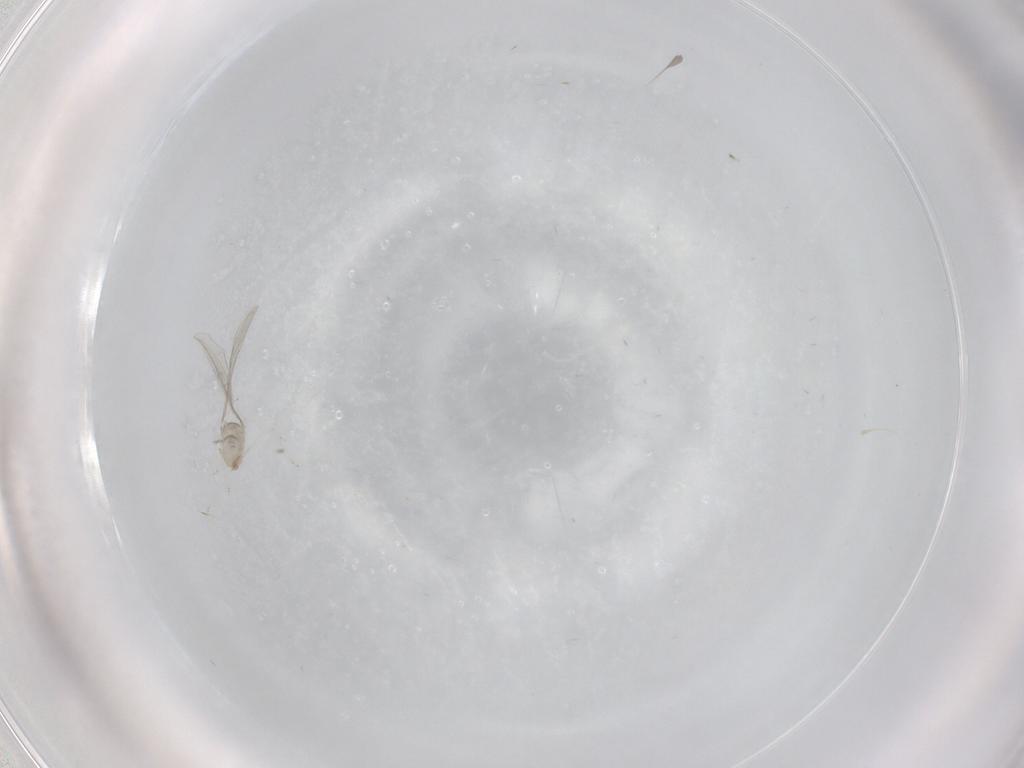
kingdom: Animalia
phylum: Arthropoda
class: Insecta
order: Diptera
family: Cecidomyiidae
